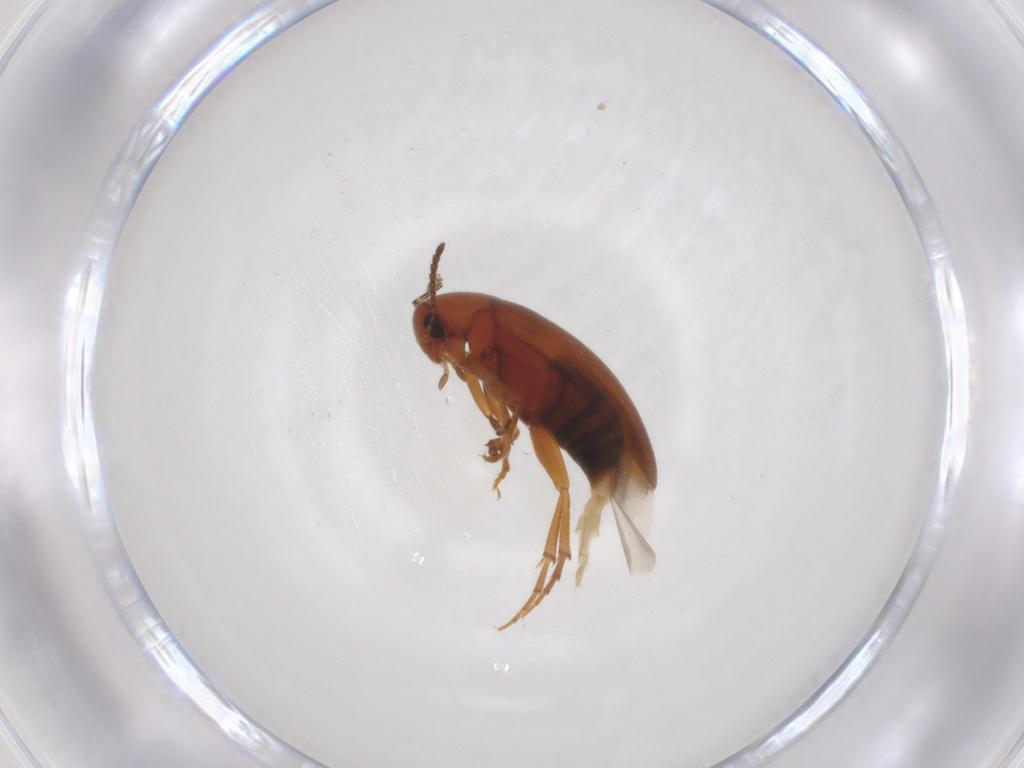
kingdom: Animalia
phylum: Arthropoda
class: Insecta
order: Coleoptera
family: Scraptiidae
